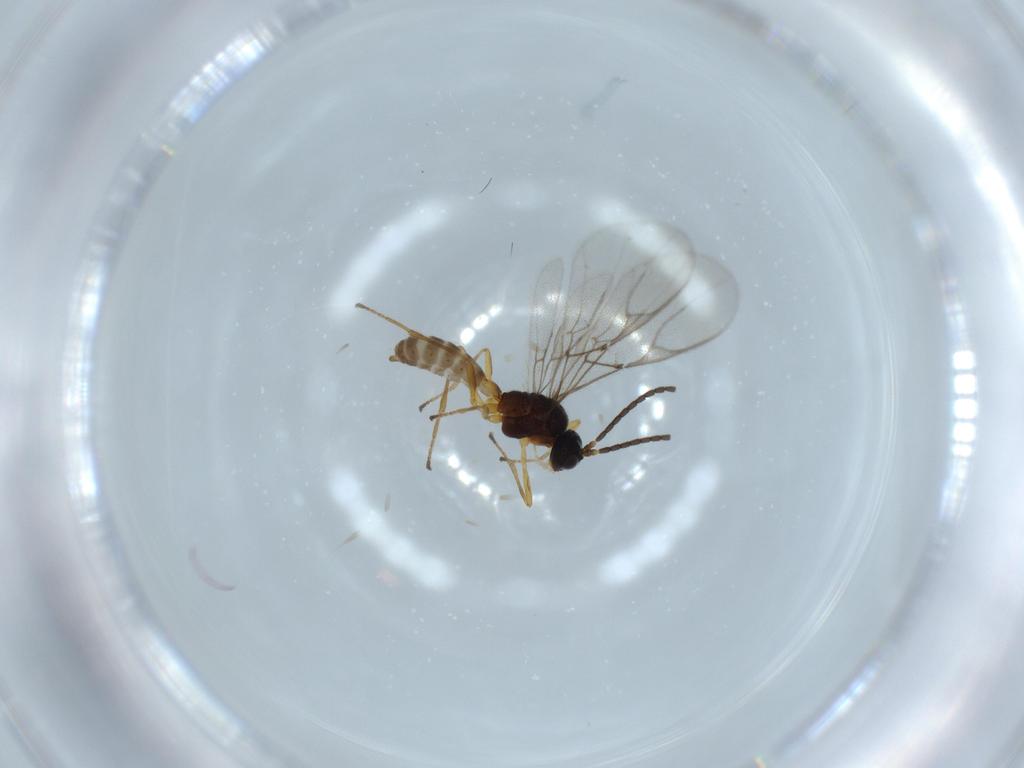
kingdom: Animalia
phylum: Arthropoda
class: Insecta
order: Hymenoptera
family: Braconidae
